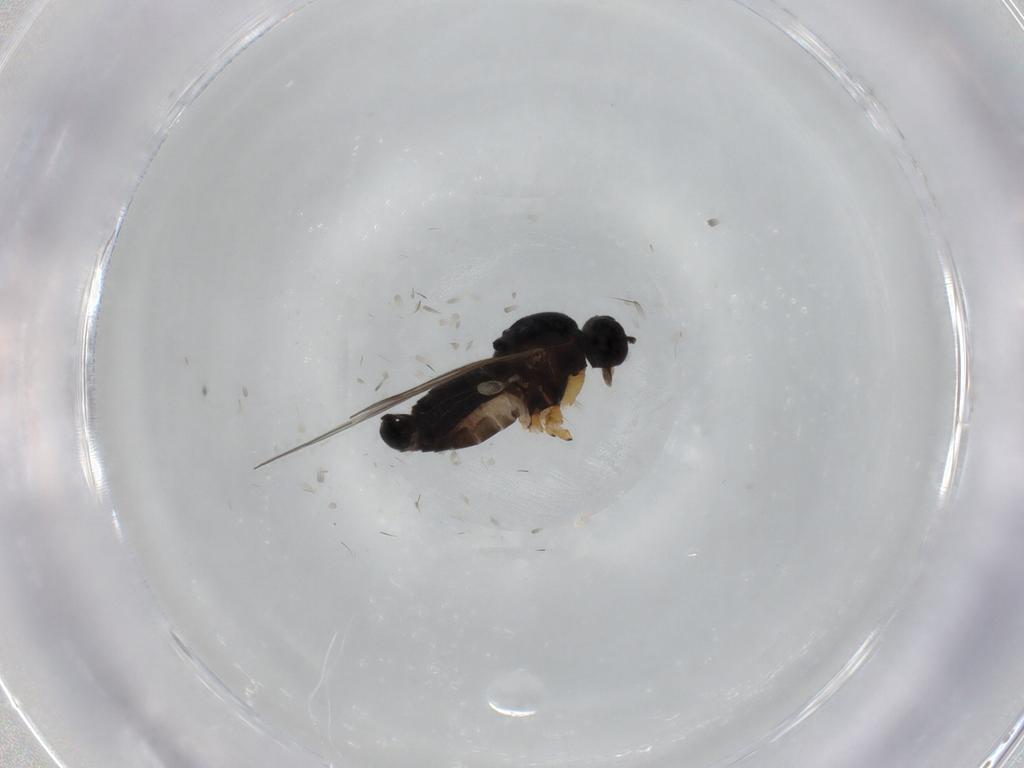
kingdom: Animalia
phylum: Arthropoda
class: Insecta
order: Diptera
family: Hybotidae
